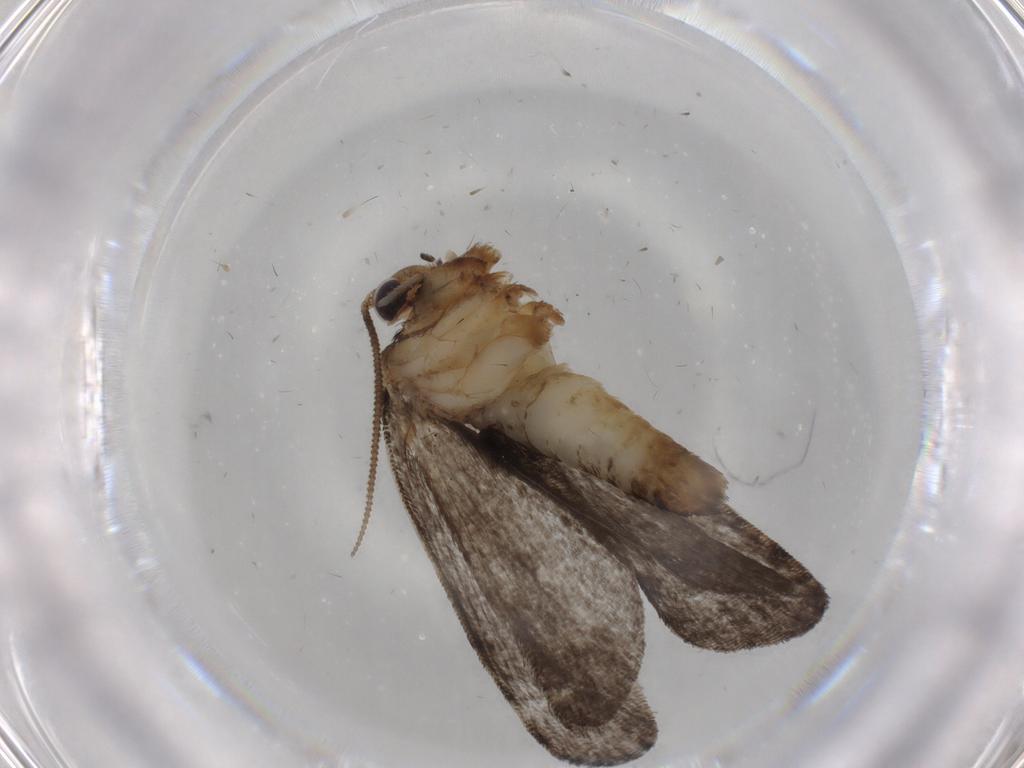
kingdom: Animalia
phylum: Arthropoda
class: Insecta
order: Lepidoptera
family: Tineidae
